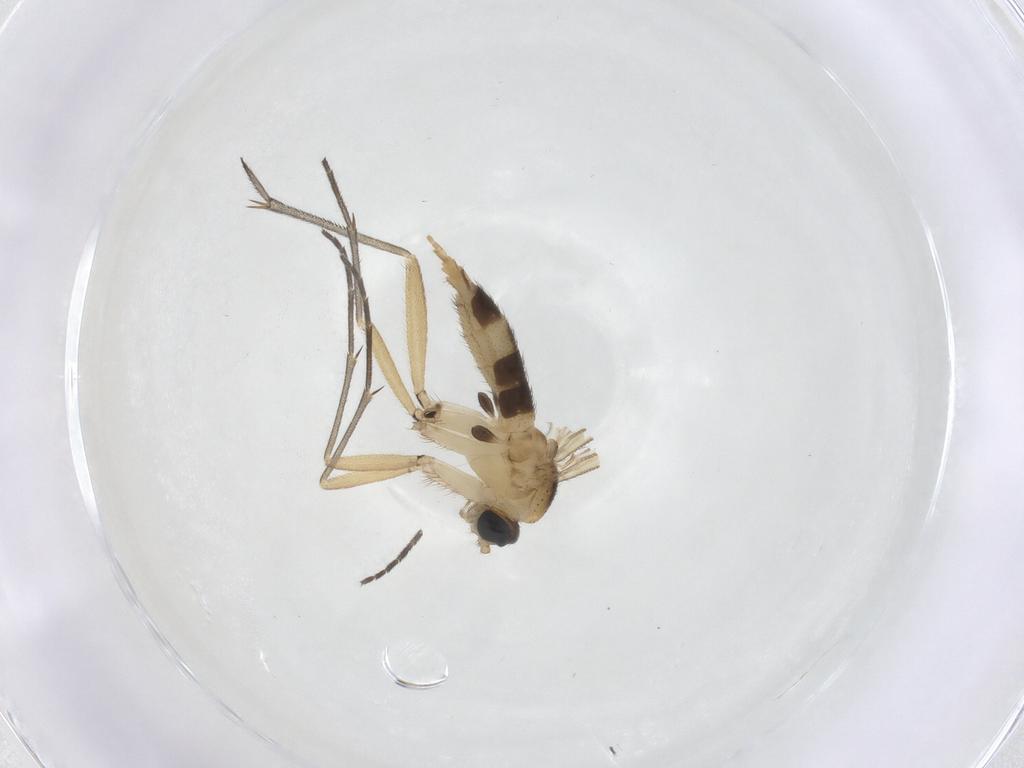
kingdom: Animalia
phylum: Arthropoda
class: Insecta
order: Diptera
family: Sciaridae
